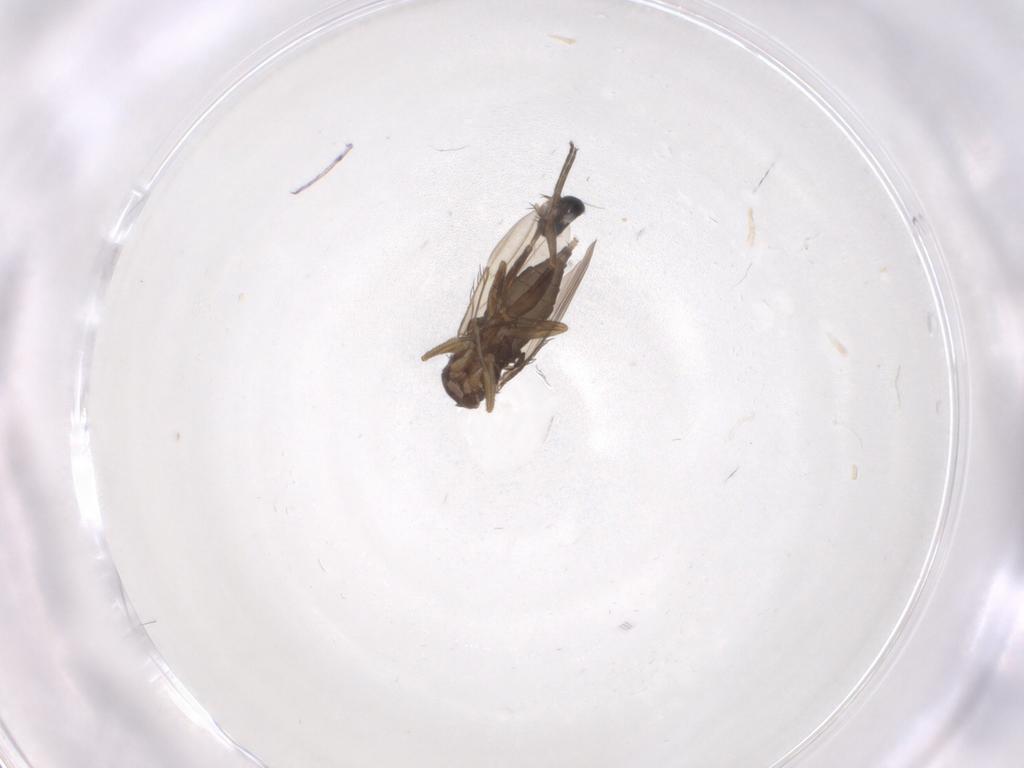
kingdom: Animalia
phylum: Arthropoda
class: Insecta
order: Diptera
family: Phoridae
